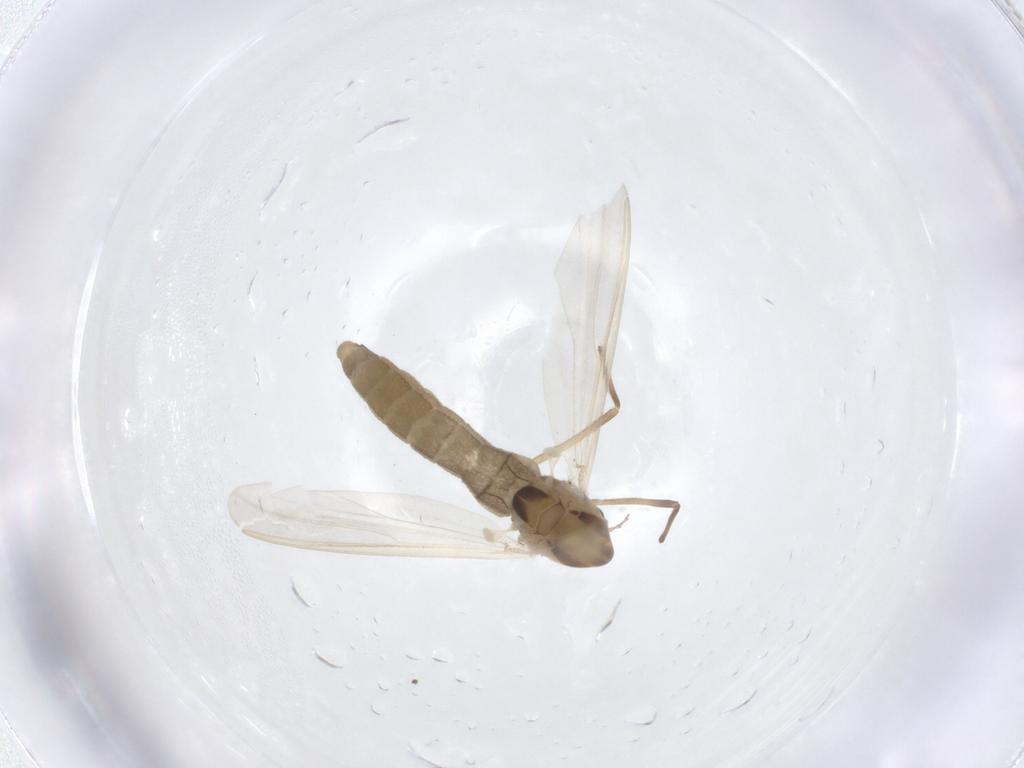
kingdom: Animalia
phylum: Arthropoda
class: Insecta
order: Diptera
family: Chironomidae
